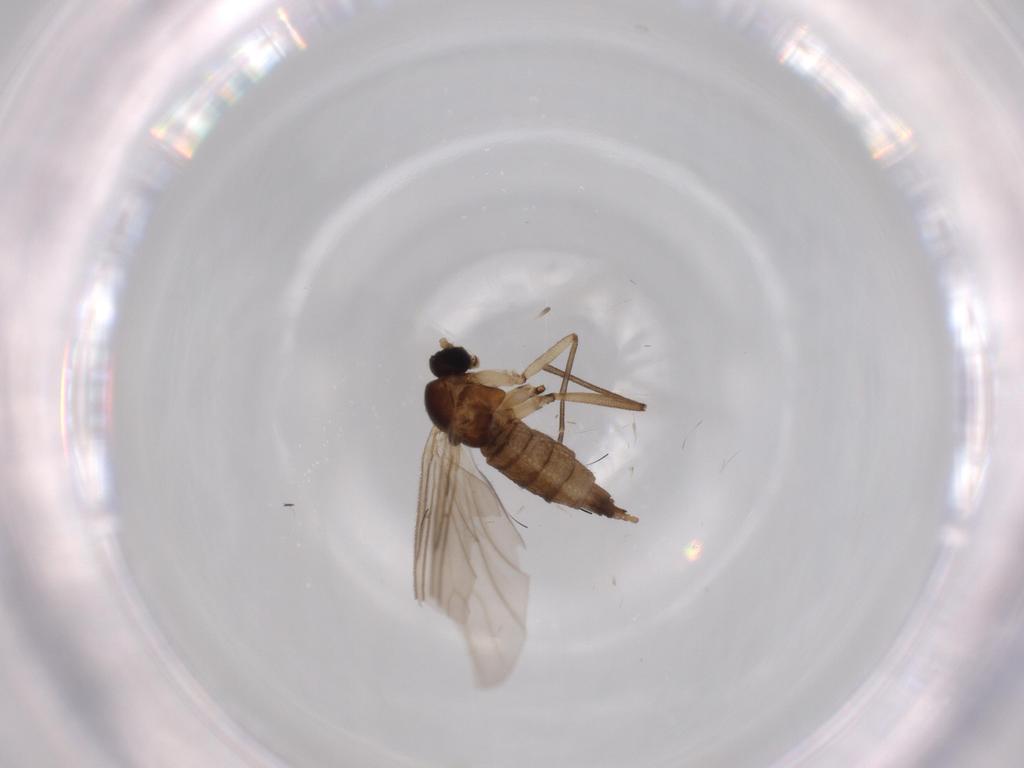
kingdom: Animalia
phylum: Arthropoda
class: Insecta
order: Diptera
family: Sciaridae
